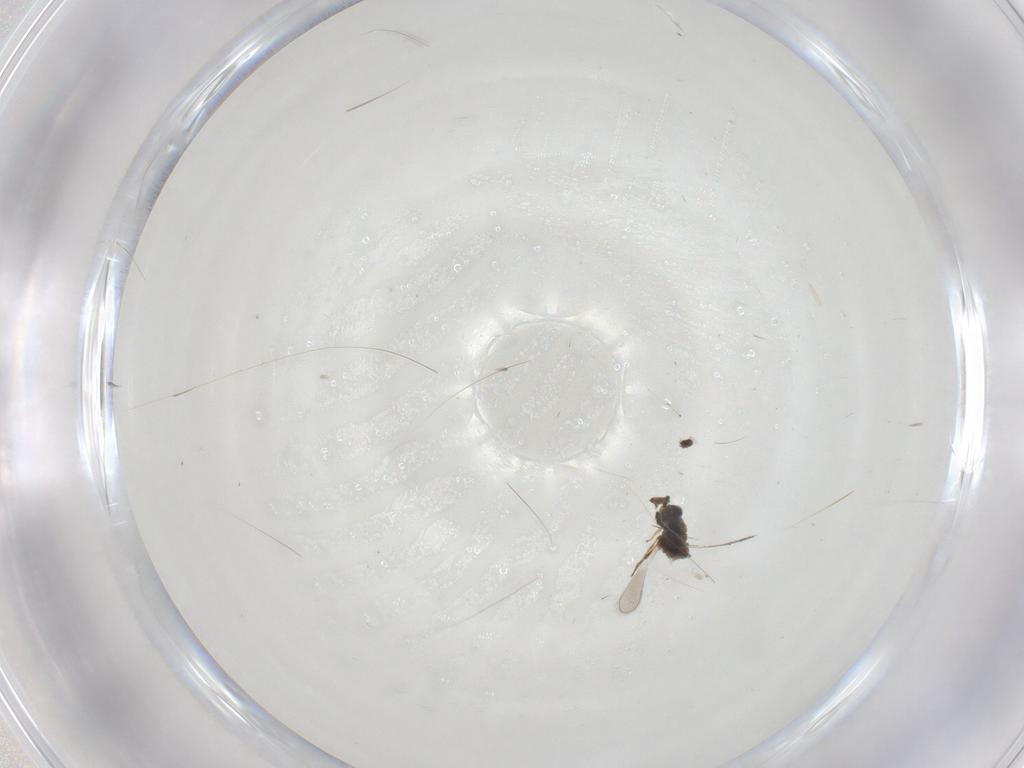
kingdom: Animalia
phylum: Arthropoda
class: Insecta
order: Hymenoptera
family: Platygastridae
